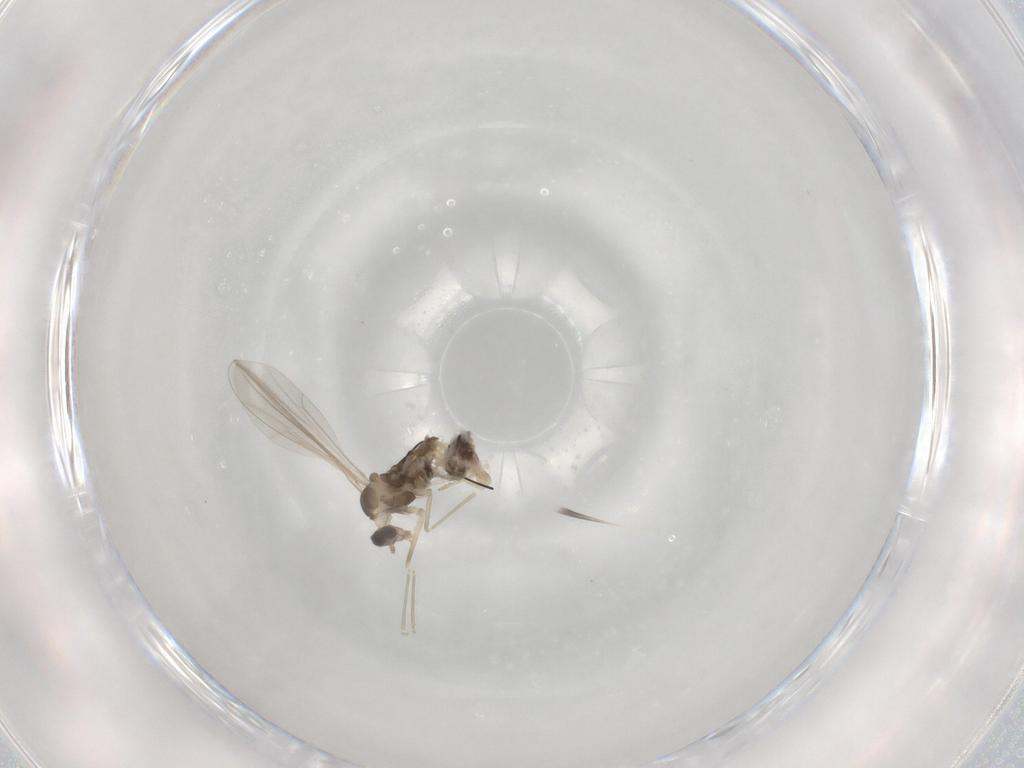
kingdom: Animalia
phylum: Arthropoda
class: Insecta
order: Diptera
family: Cecidomyiidae
